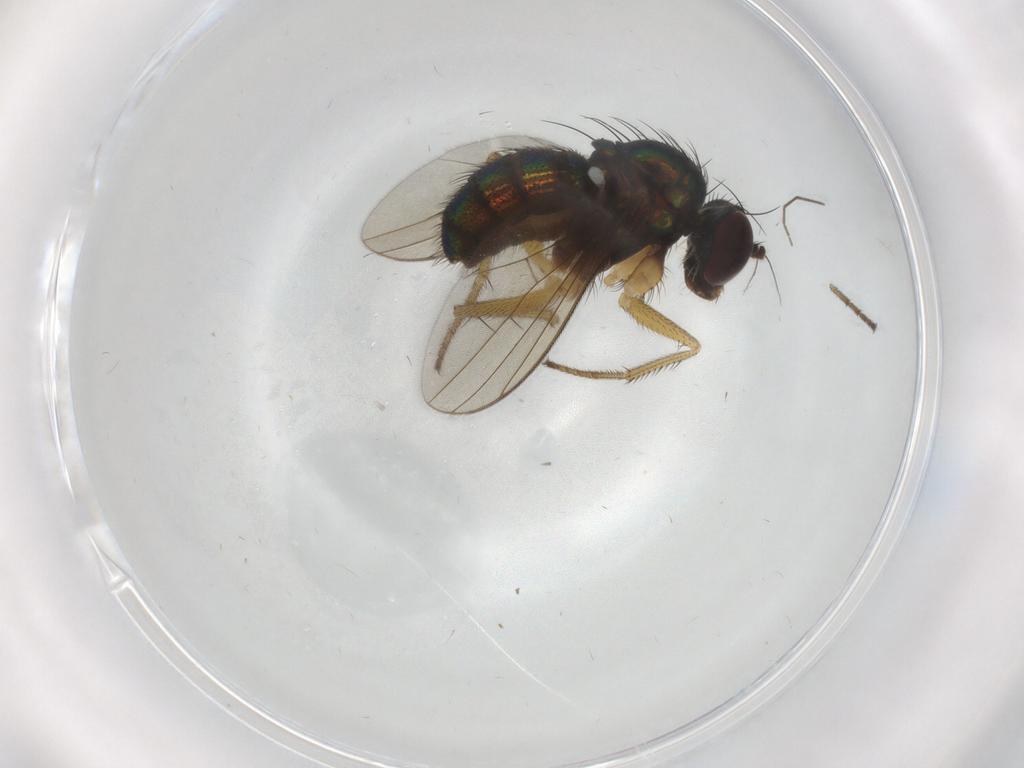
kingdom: Animalia
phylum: Arthropoda
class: Insecta
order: Diptera
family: Dolichopodidae
